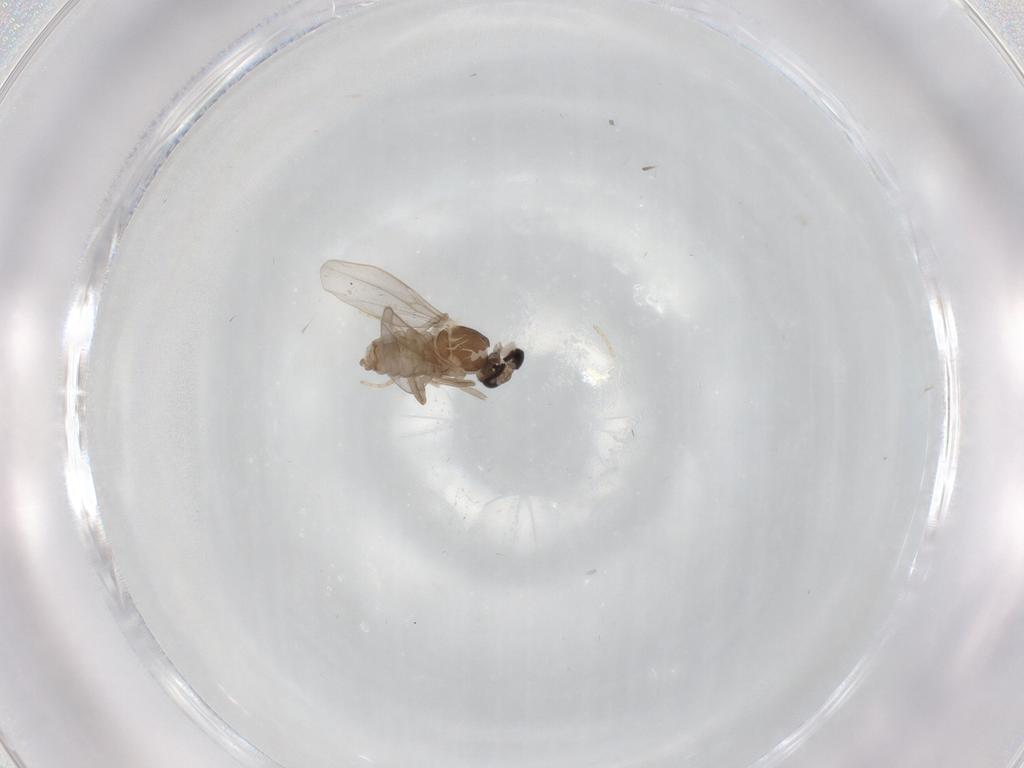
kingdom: Animalia
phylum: Arthropoda
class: Insecta
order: Diptera
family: Cecidomyiidae
